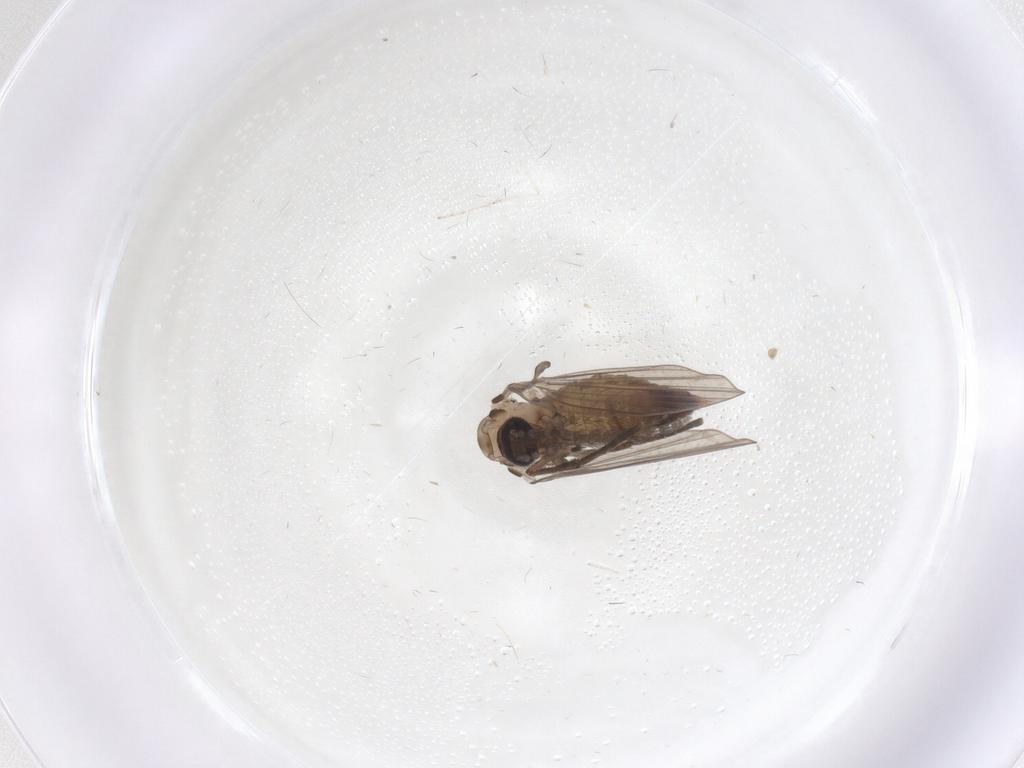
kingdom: Animalia
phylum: Arthropoda
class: Insecta
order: Diptera
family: Psychodidae
